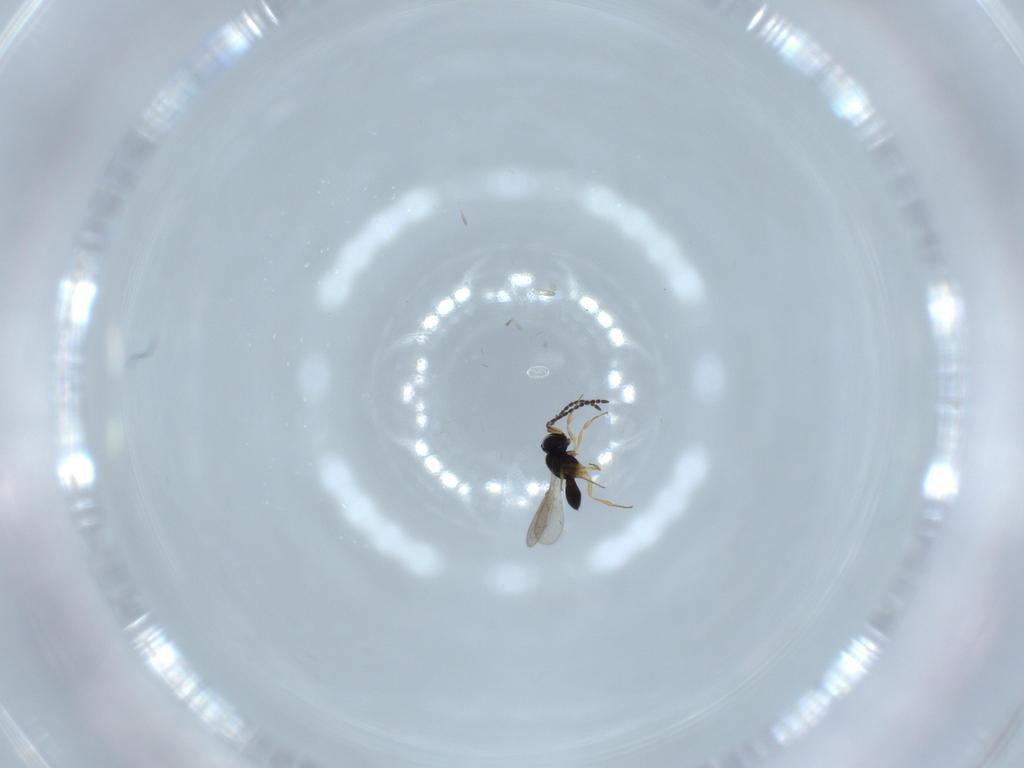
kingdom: Animalia
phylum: Arthropoda
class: Insecta
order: Hymenoptera
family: Scelionidae
